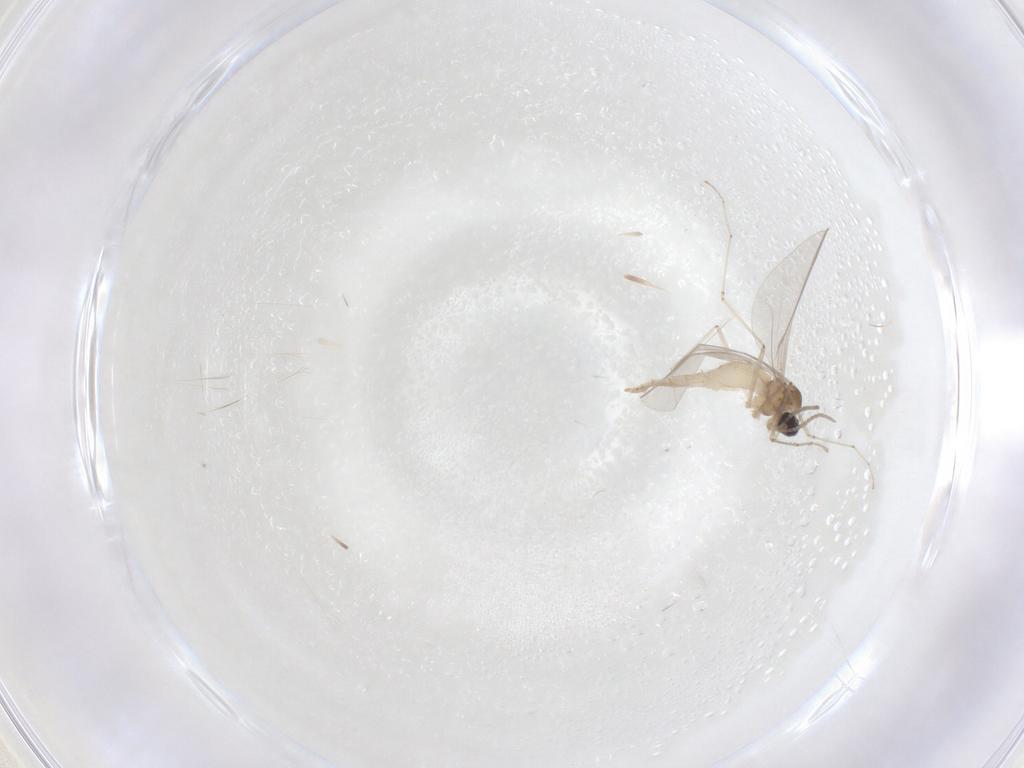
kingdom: Animalia
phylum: Arthropoda
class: Insecta
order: Diptera
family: Cecidomyiidae
